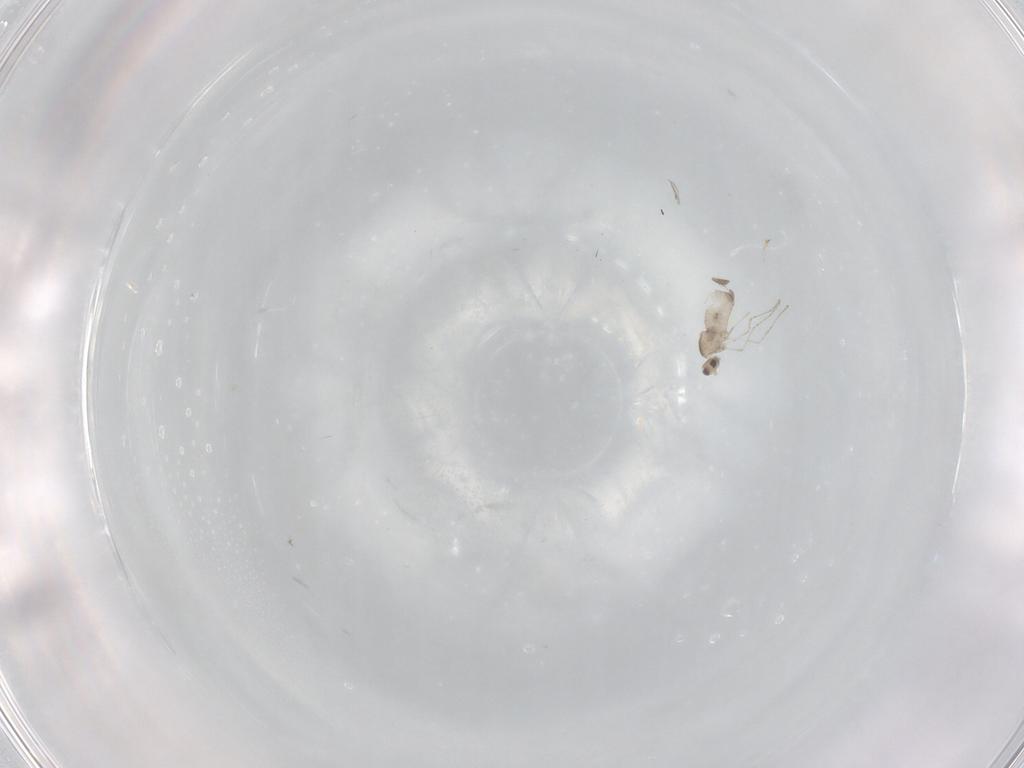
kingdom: Animalia
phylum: Arthropoda
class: Insecta
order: Diptera
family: Cecidomyiidae
